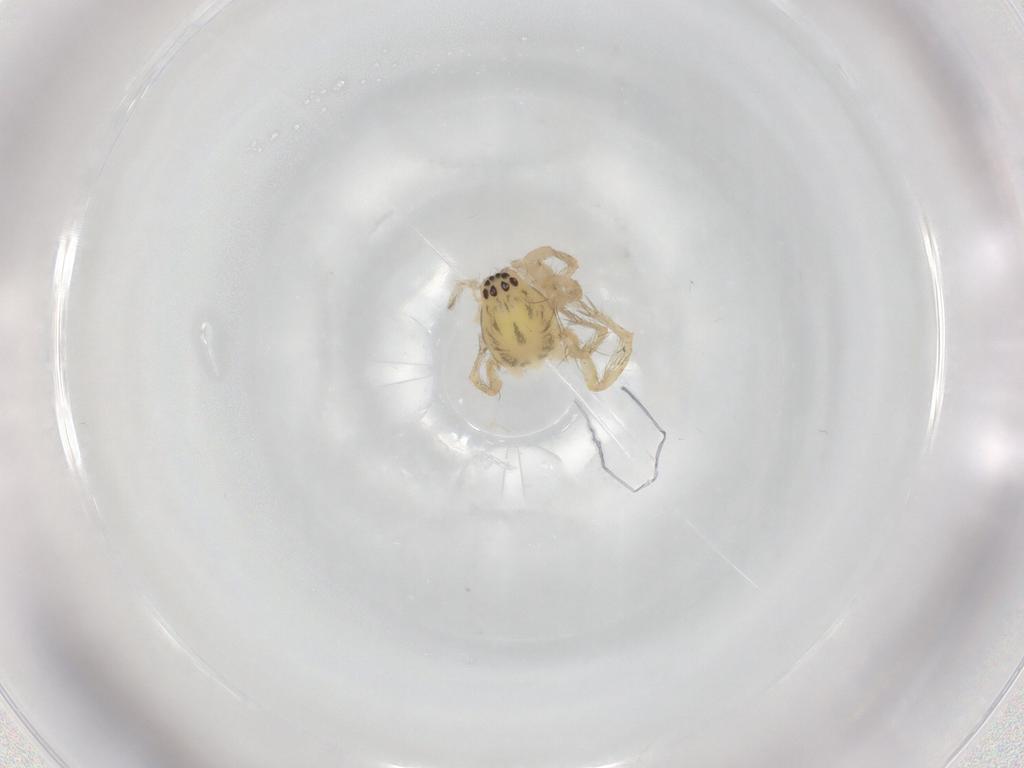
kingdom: Animalia
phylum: Arthropoda
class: Arachnida
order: Araneae
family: Anyphaenidae
